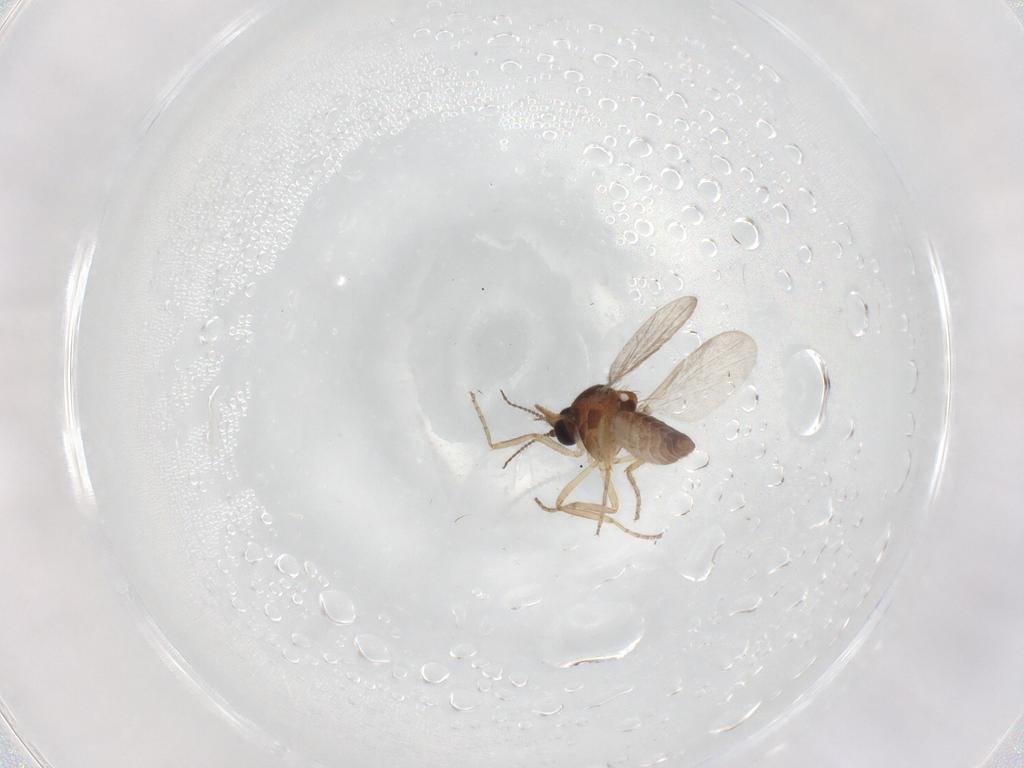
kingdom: Animalia
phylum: Arthropoda
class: Insecta
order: Diptera
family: Ceratopogonidae
